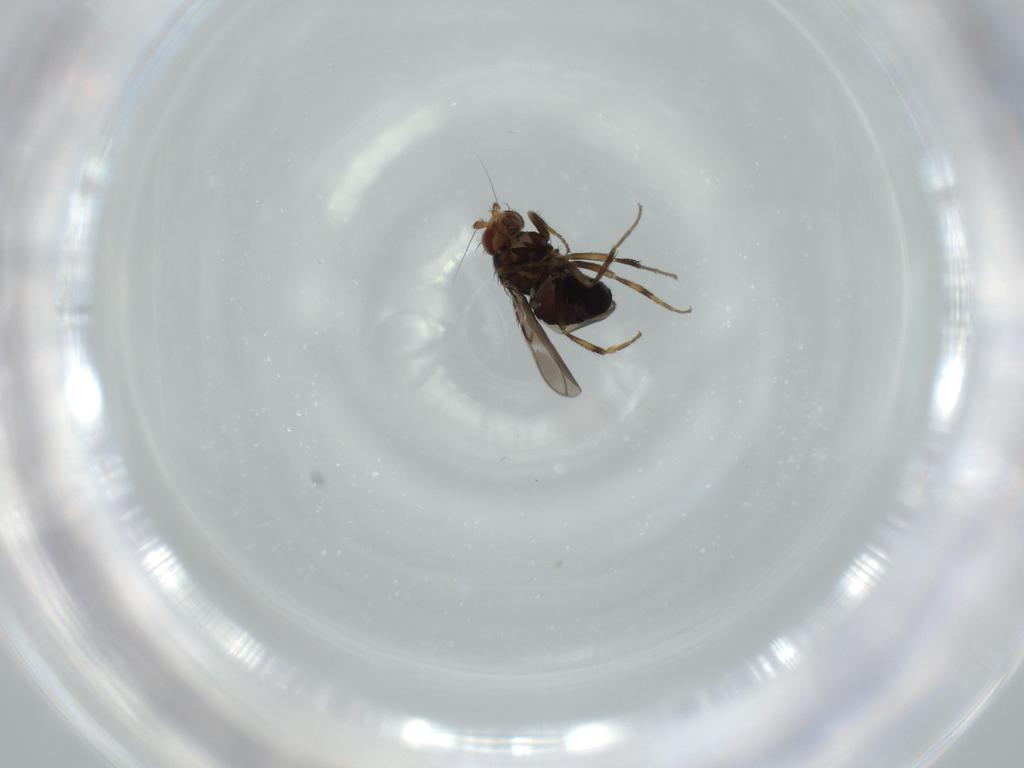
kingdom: Animalia
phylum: Arthropoda
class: Insecta
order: Diptera
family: Sphaeroceridae
